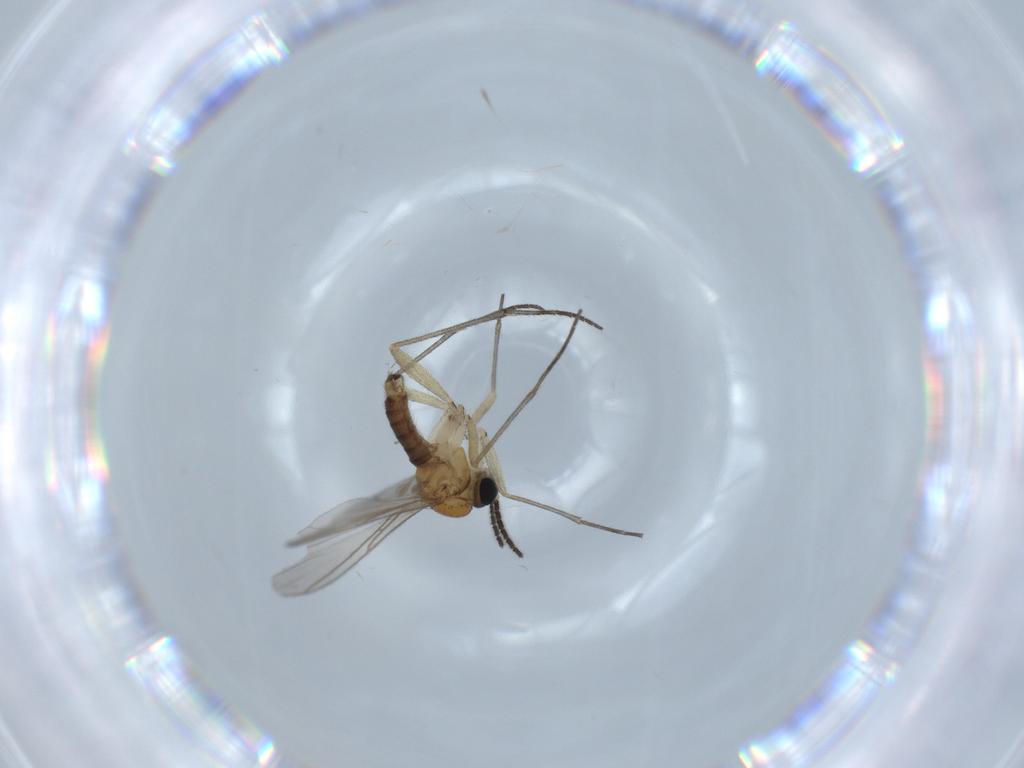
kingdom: Animalia
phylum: Arthropoda
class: Insecta
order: Diptera
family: Sciaridae
